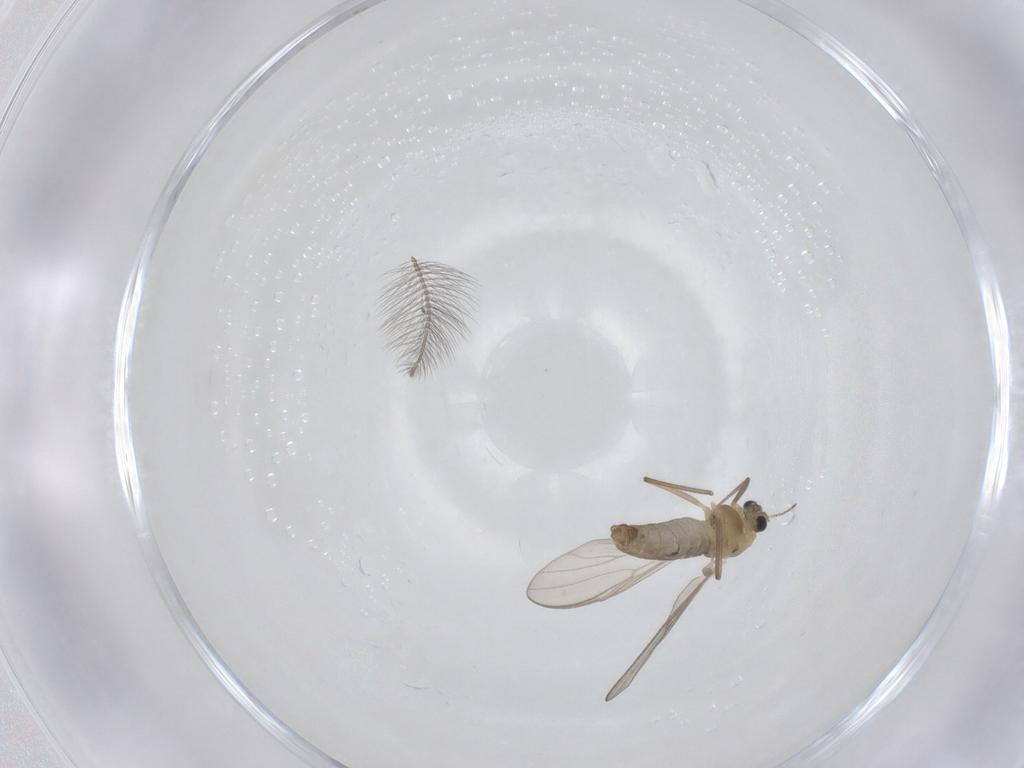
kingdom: Animalia
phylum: Arthropoda
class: Insecta
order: Diptera
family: Chironomidae
